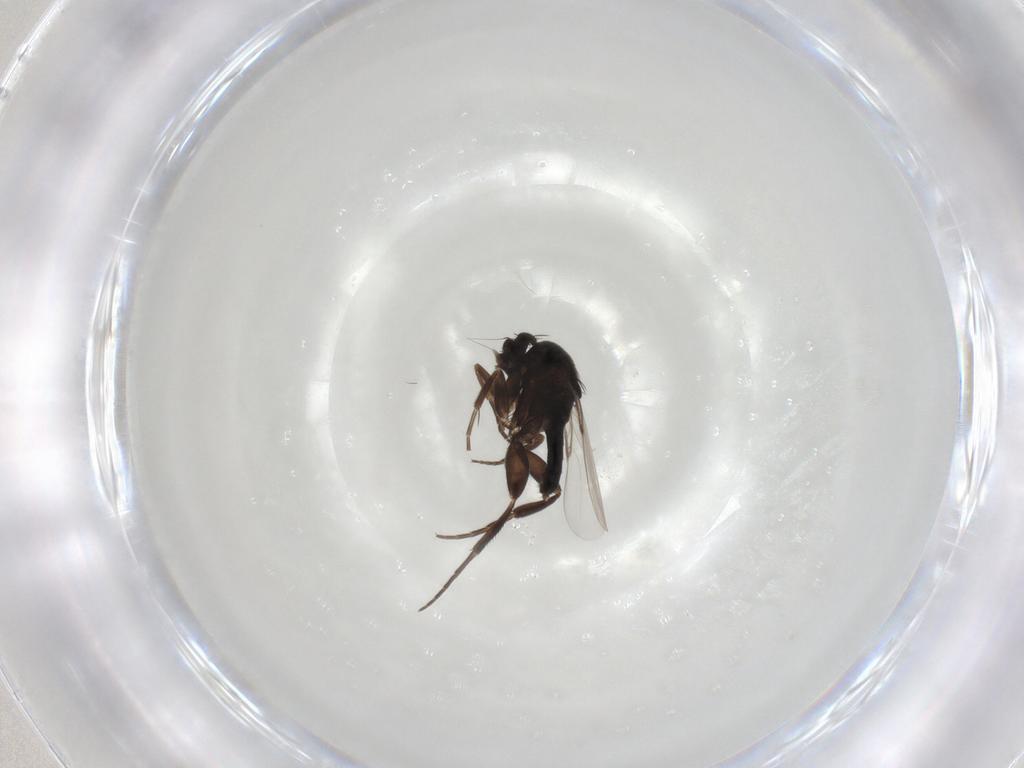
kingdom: Animalia
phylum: Arthropoda
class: Insecta
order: Diptera
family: Phoridae
